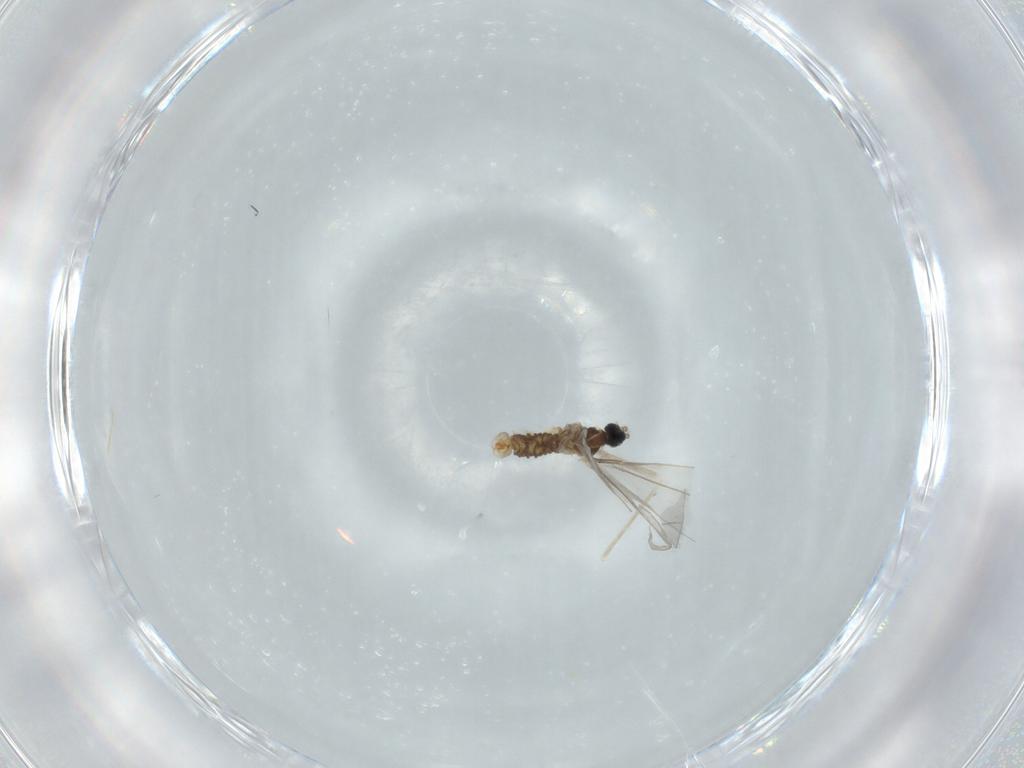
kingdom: Animalia
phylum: Arthropoda
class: Insecta
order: Diptera
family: Cecidomyiidae
